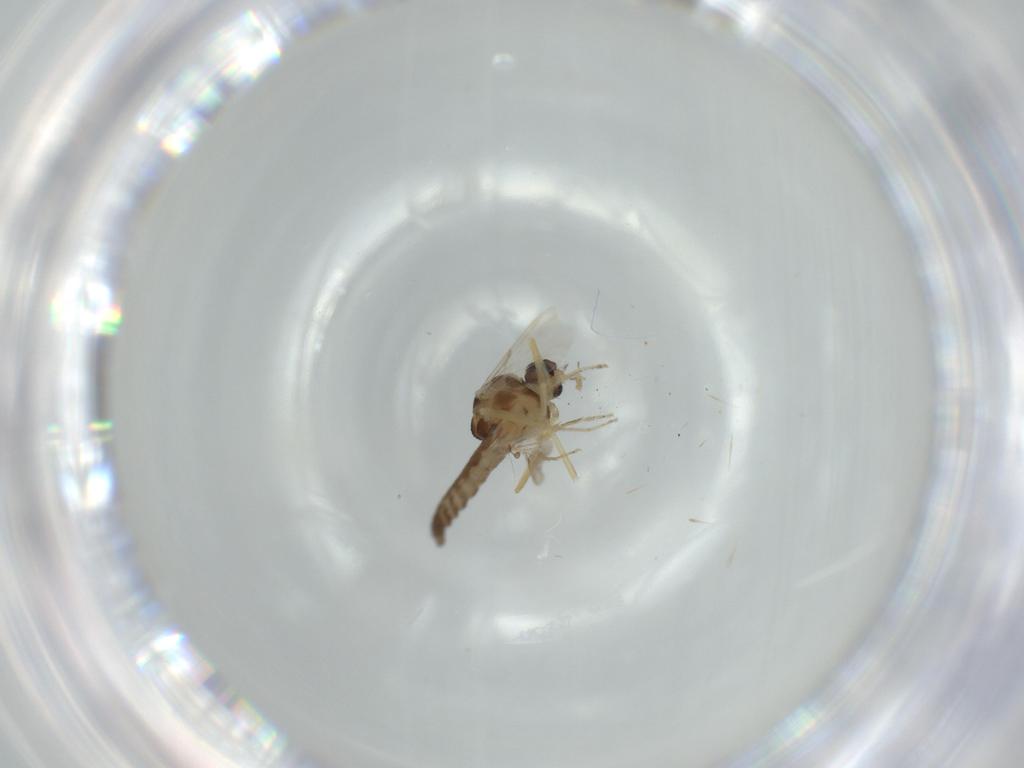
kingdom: Animalia
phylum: Arthropoda
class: Insecta
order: Diptera
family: Ceratopogonidae
